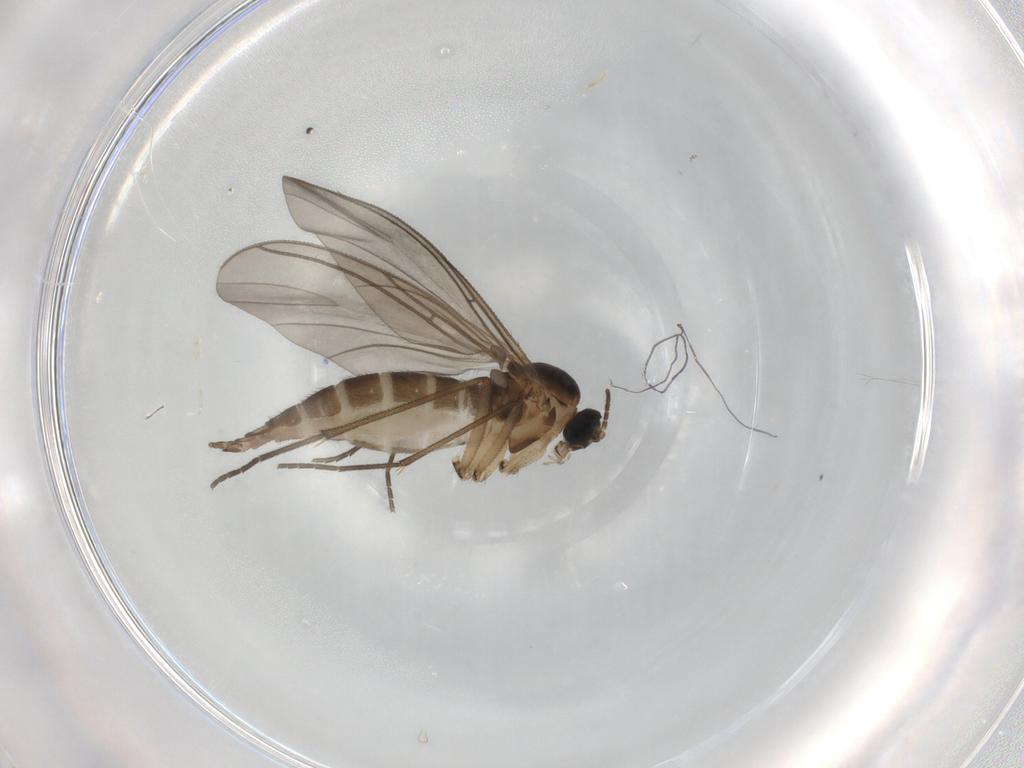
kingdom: Animalia
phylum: Arthropoda
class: Insecta
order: Diptera
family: Sciaridae
